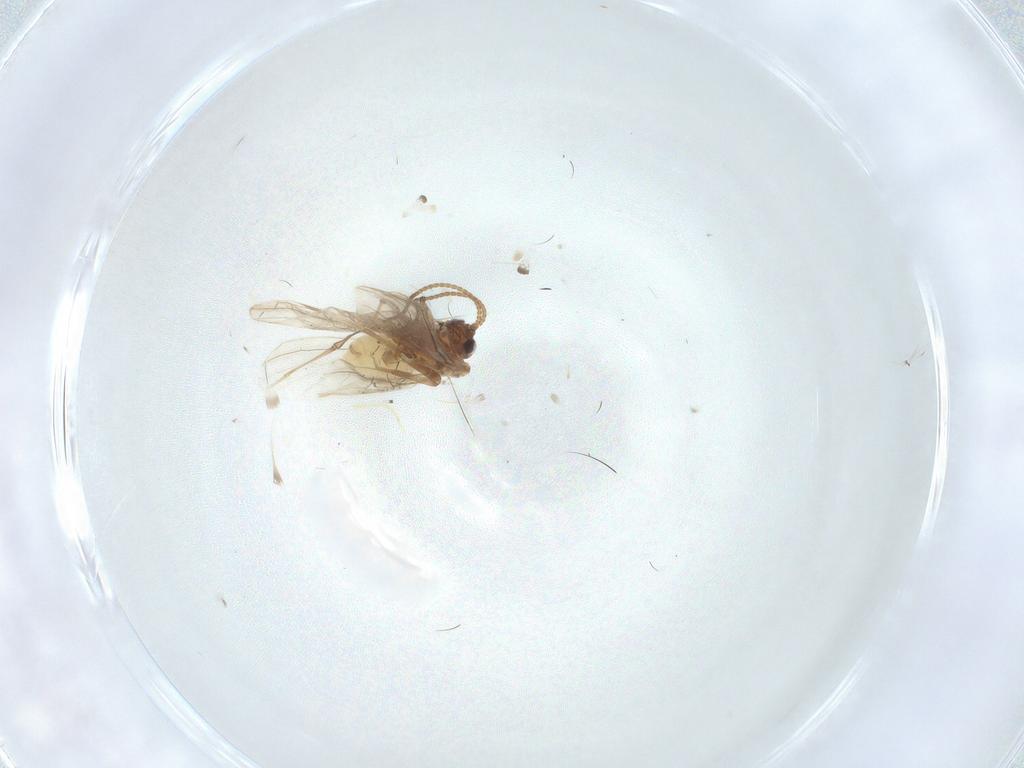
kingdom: Animalia
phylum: Arthropoda
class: Insecta
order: Neuroptera
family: Coniopterygidae
